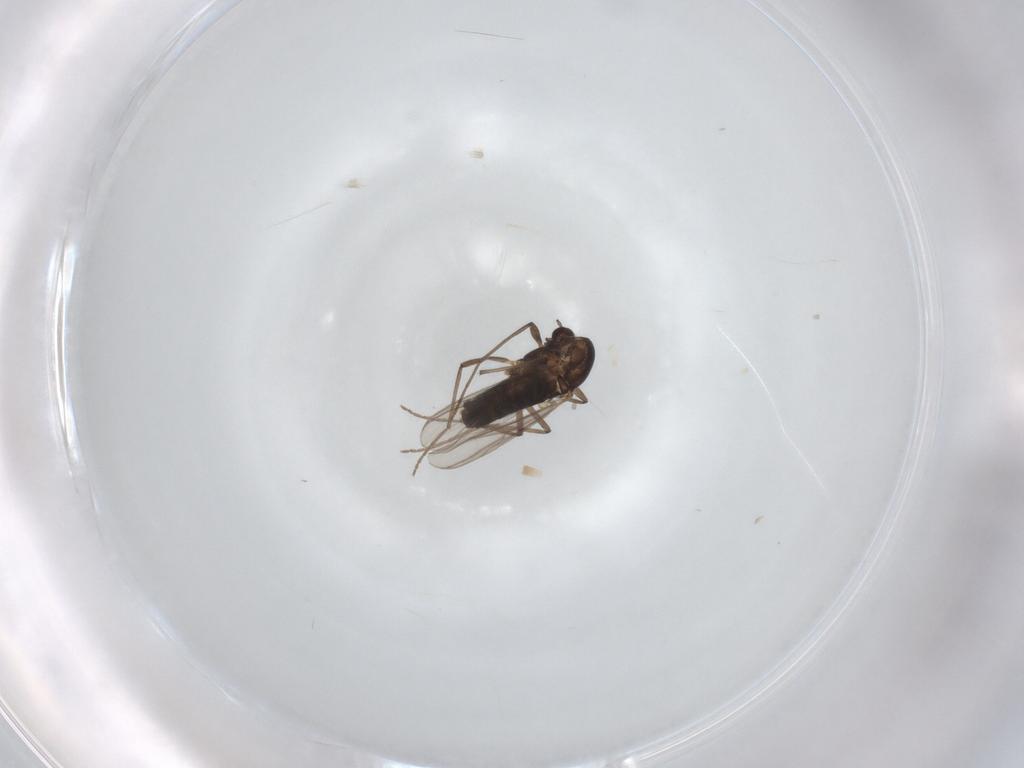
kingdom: Animalia
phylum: Arthropoda
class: Insecta
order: Diptera
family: Chironomidae
